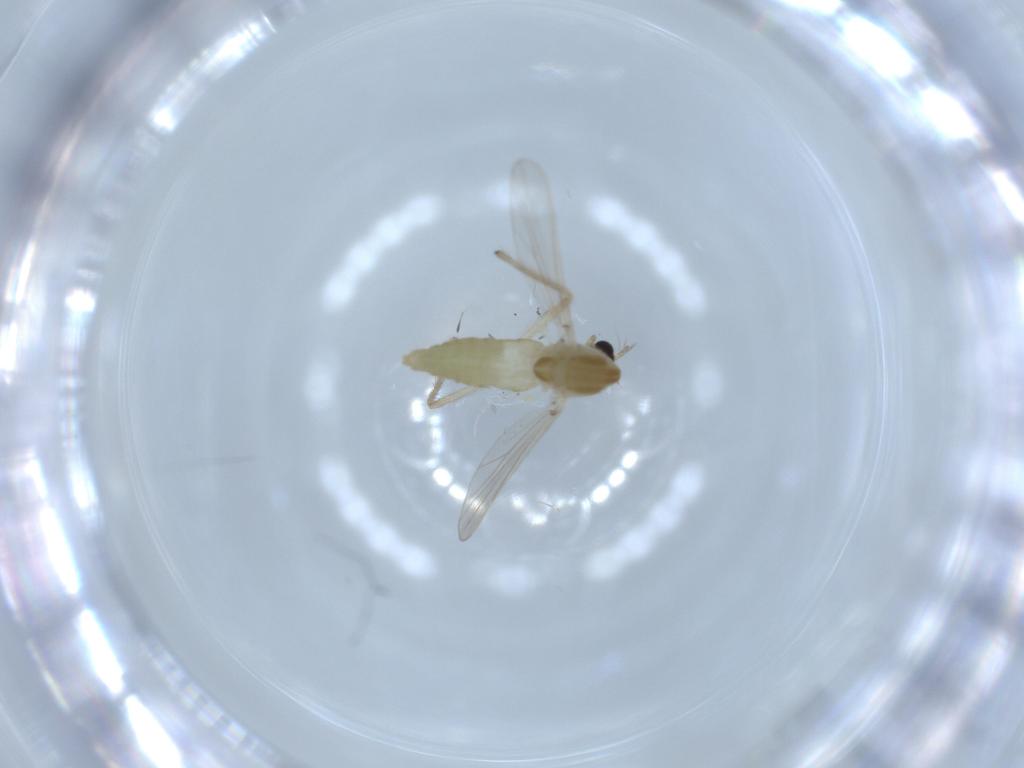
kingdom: Animalia
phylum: Arthropoda
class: Insecta
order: Diptera
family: Chironomidae
